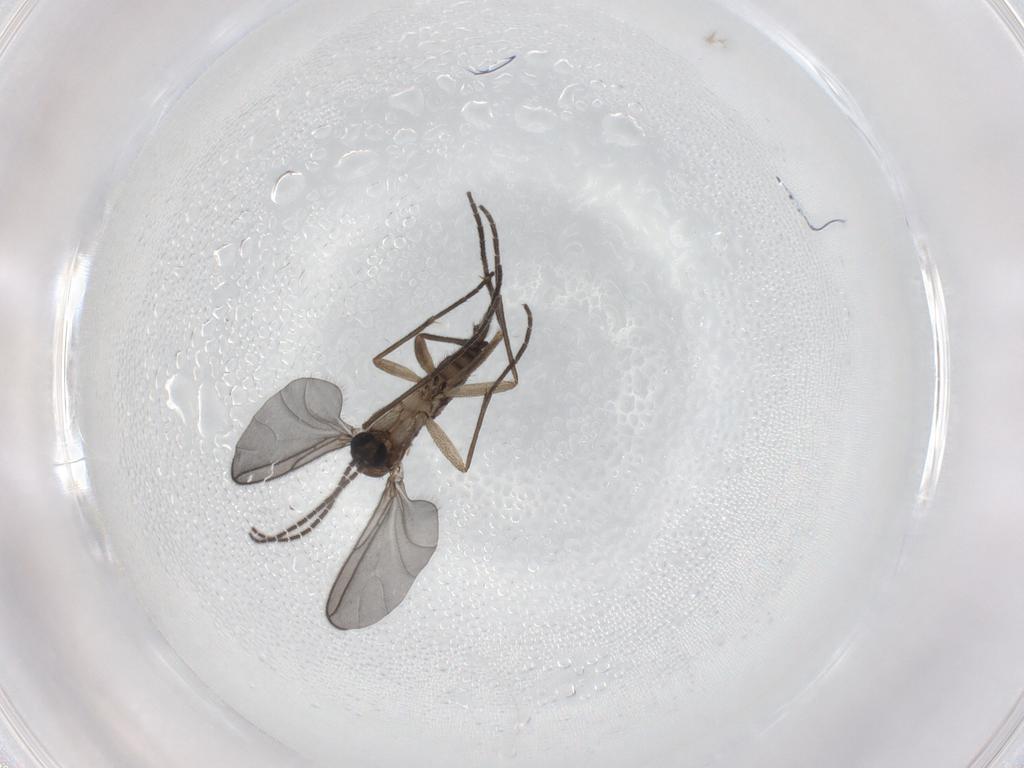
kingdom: Animalia
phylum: Arthropoda
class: Insecta
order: Diptera
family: Sciaridae
